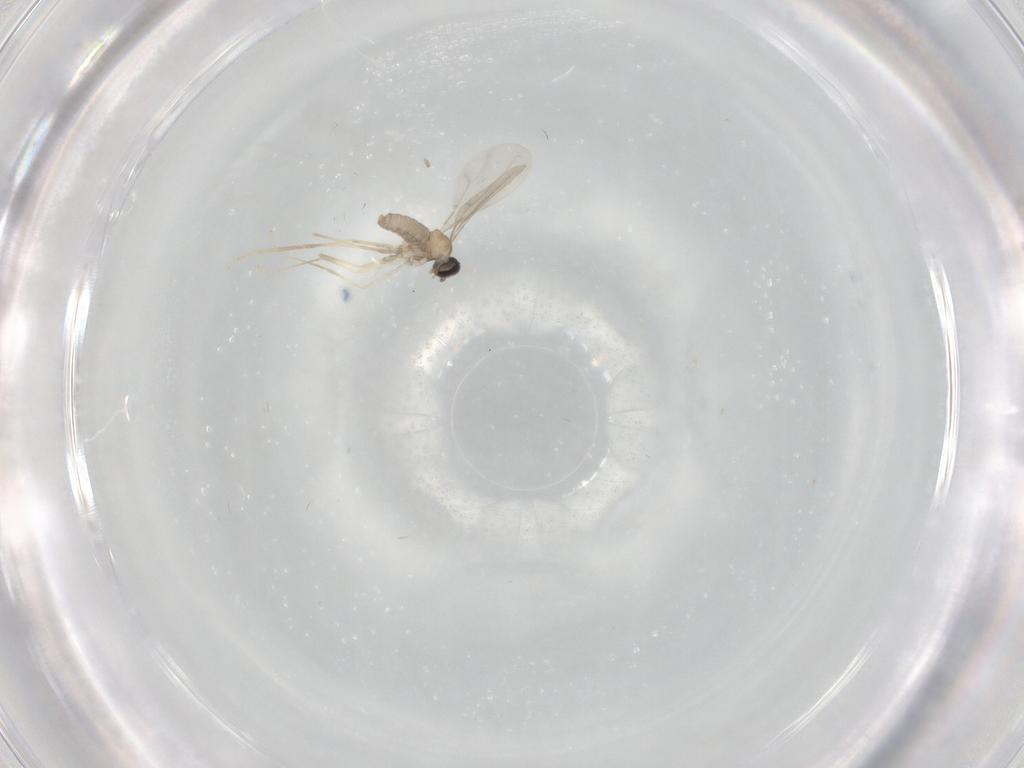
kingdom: Animalia
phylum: Arthropoda
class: Insecta
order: Diptera
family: Cecidomyiidae
